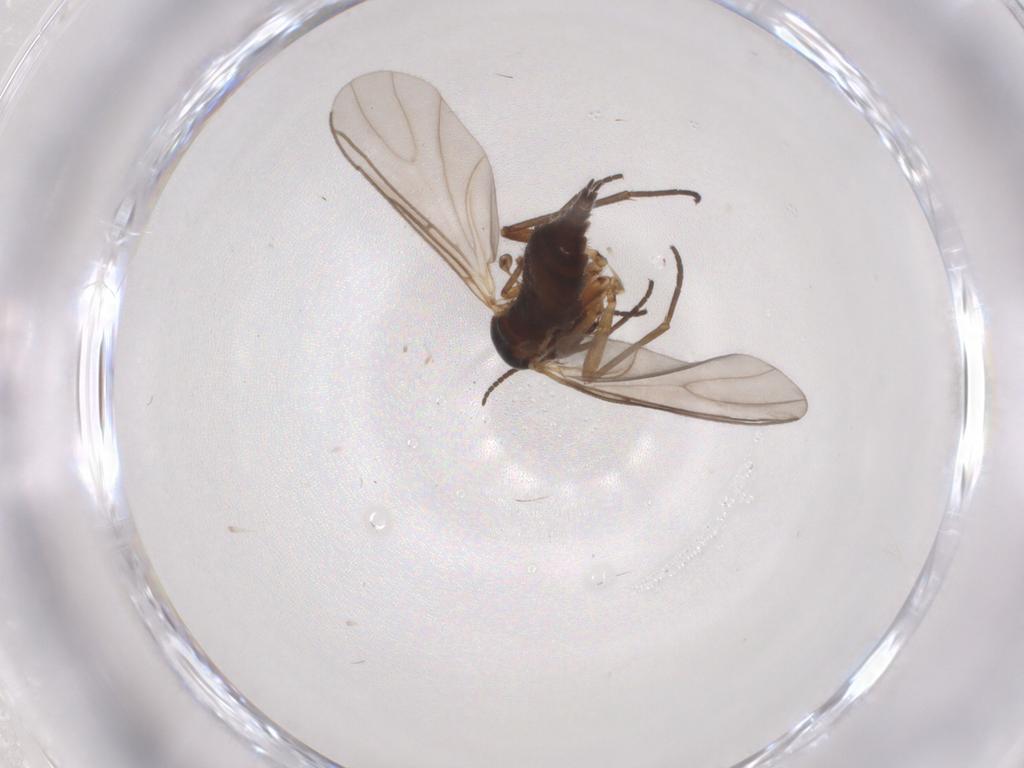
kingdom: Animalia
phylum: Arthropoda
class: Insecta
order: Diptera
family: Sciaridae
